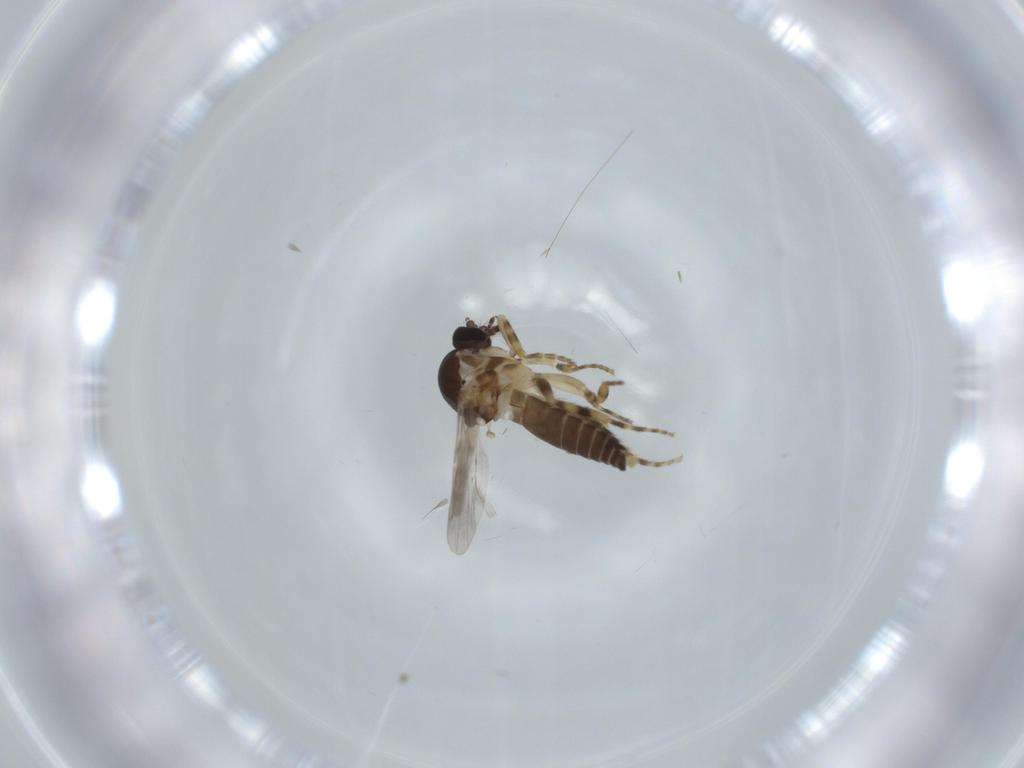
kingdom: Animalia
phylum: Arthropoda
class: Insecta
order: Diptera
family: Ceratopogonidae
